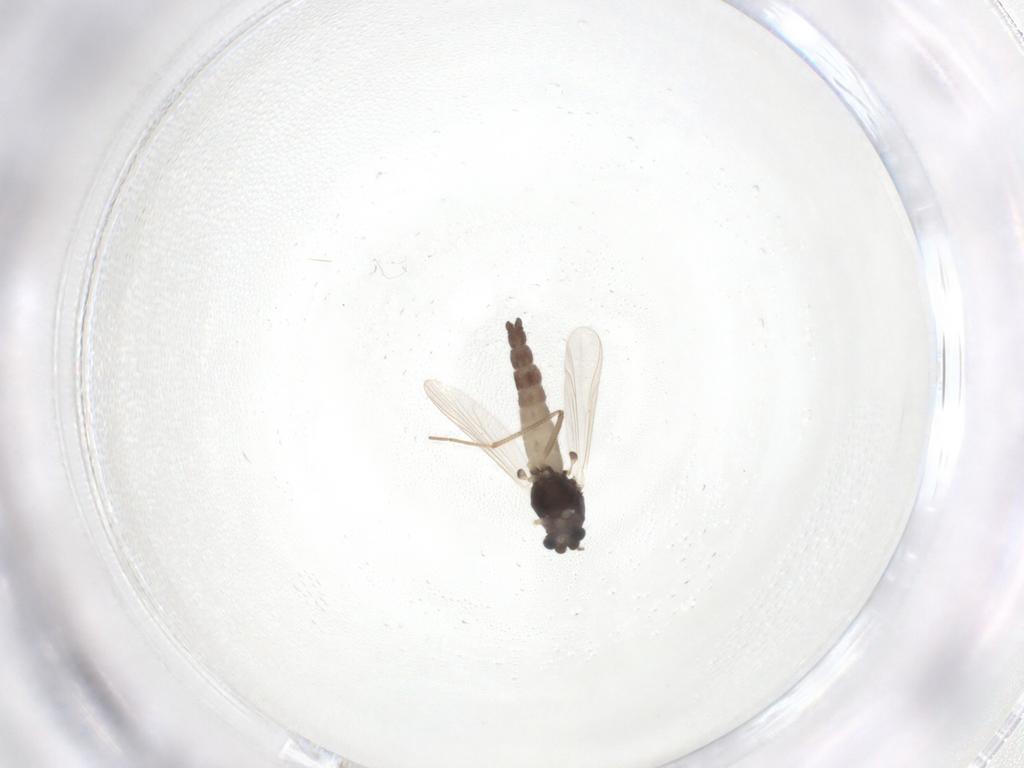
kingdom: Animalia
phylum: Arthropoda
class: Insecta
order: Diptera
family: Chironomidae
